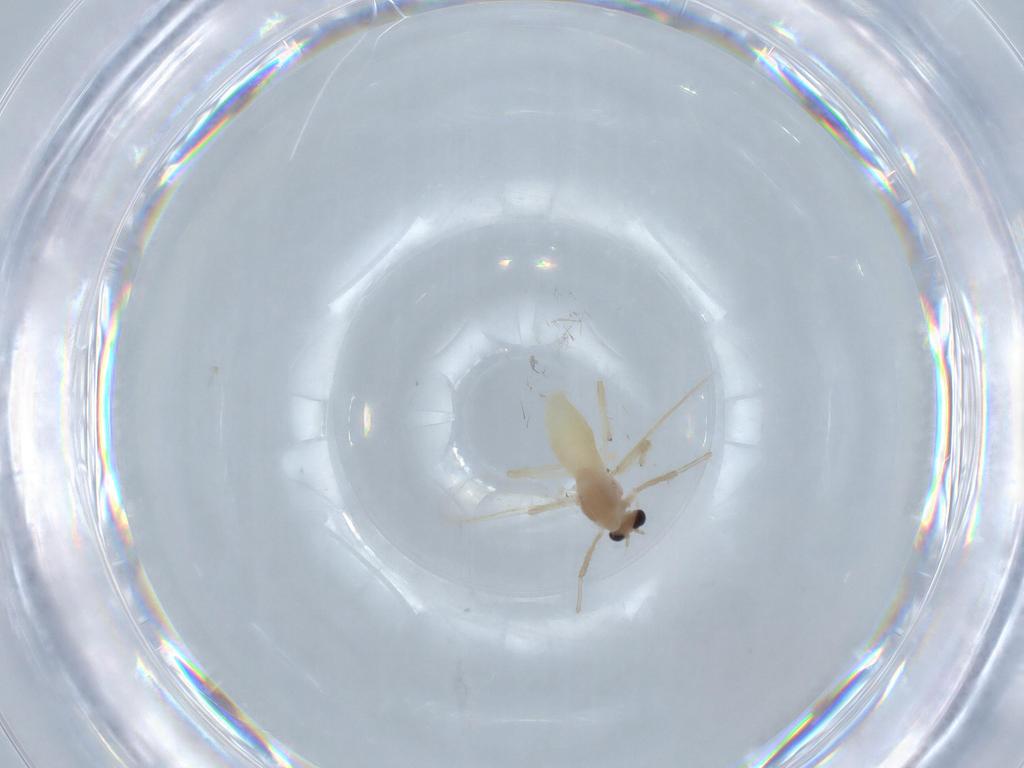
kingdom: Animalia
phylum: Arthropoda
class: Insecta
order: Diptera
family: Chironomidae
